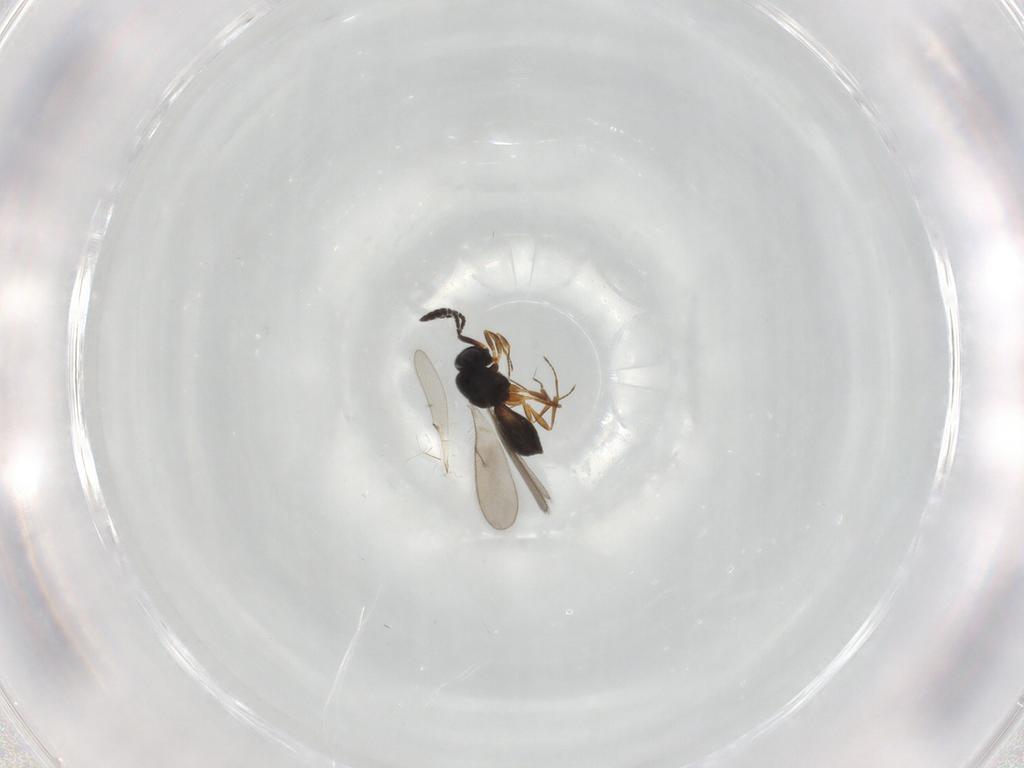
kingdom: Animalia
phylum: Arthropoda
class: Insecta
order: Hymenoptera
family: Scelionidae
